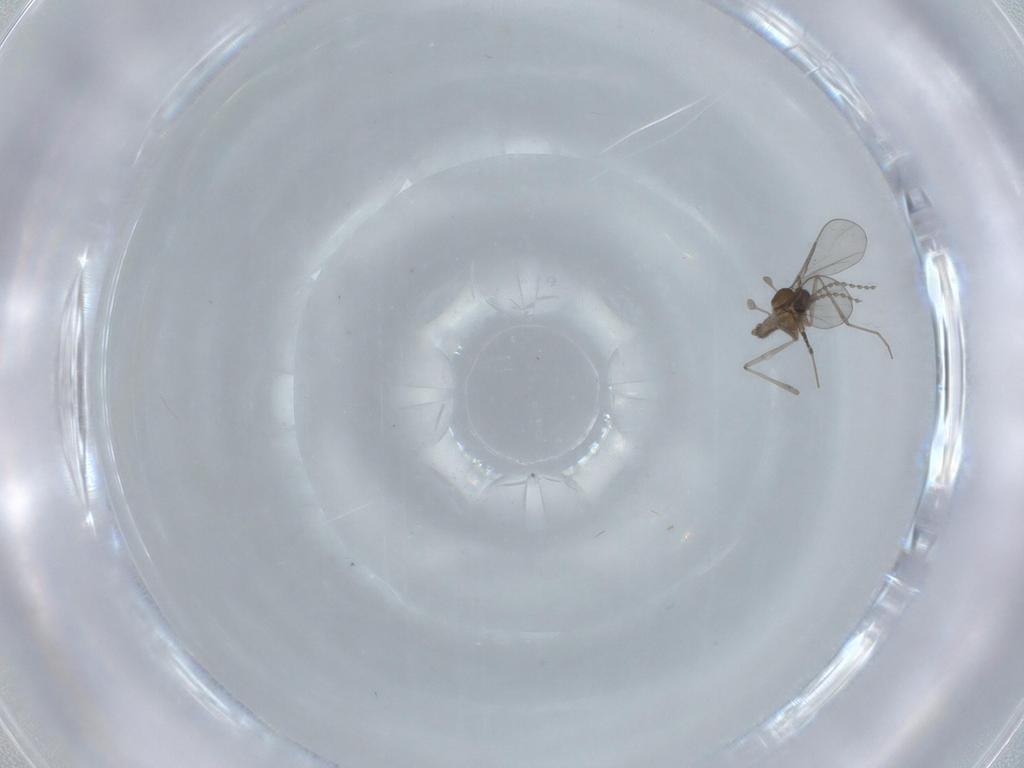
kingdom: Animalia
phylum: Arthropoda
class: Insecta
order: Diptera
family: Cecidomyiidae
